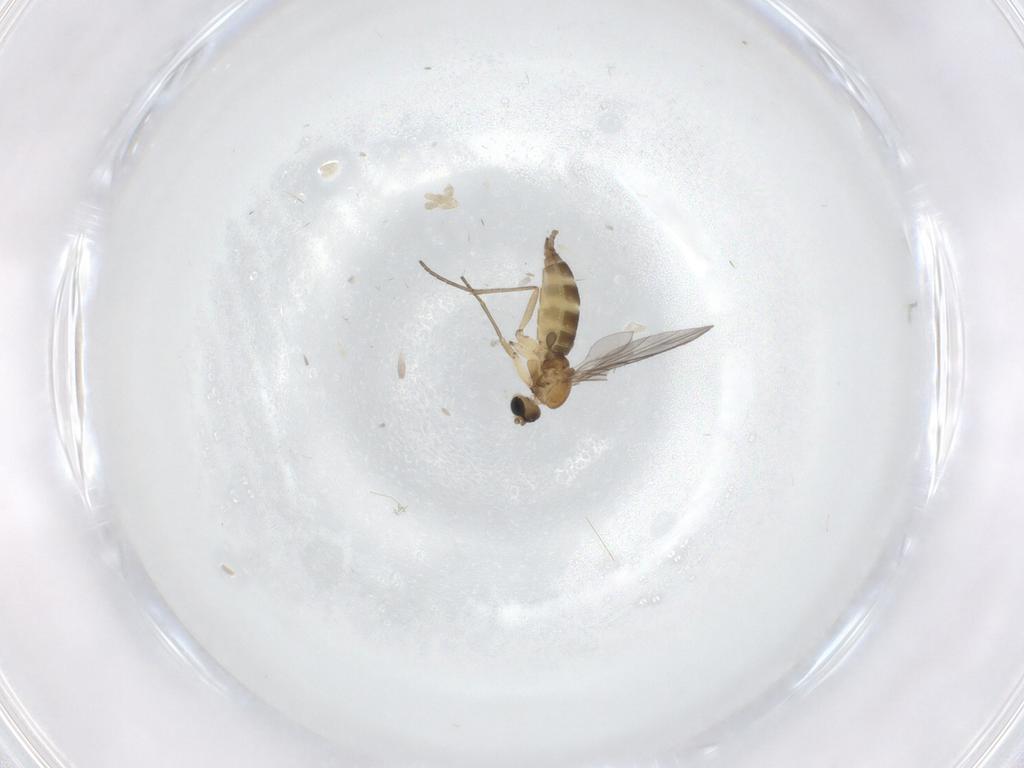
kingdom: Animalia
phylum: Arthropoda
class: Insecta
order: Diptera
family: Sciaridae
